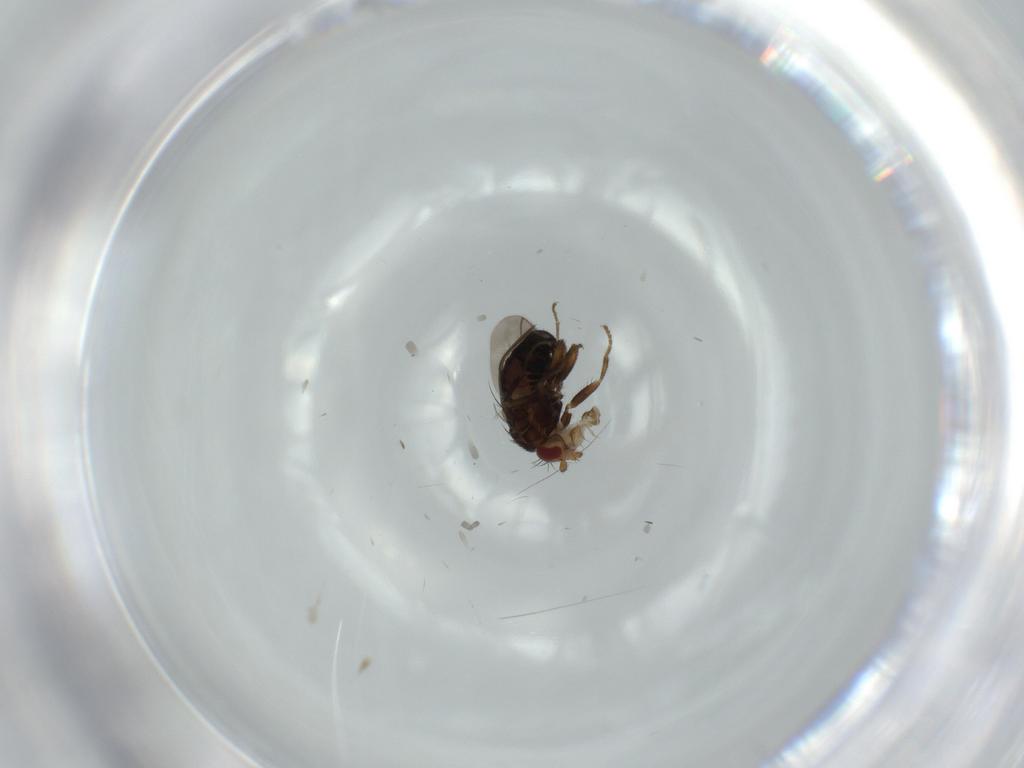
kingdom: Animalia
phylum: Arthropoda
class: Insecta
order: Diptera
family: Sphaeroceridae
